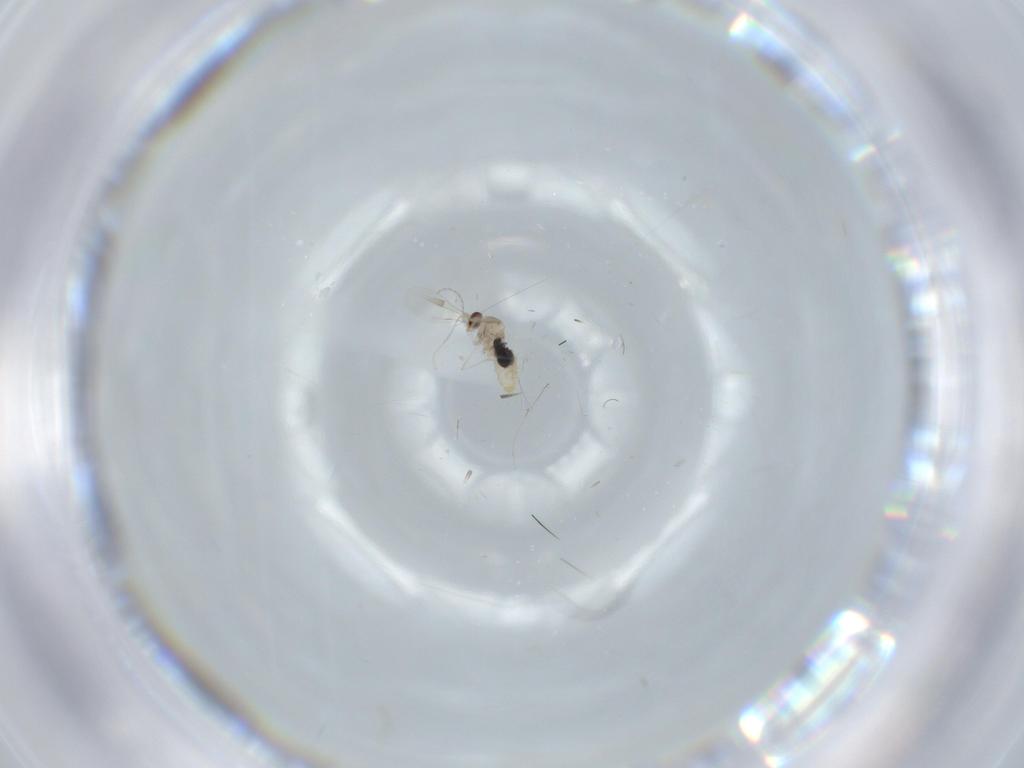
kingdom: Animalia
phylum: Arthropoda
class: Insecta
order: Diptera
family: Cecidomyiidae
